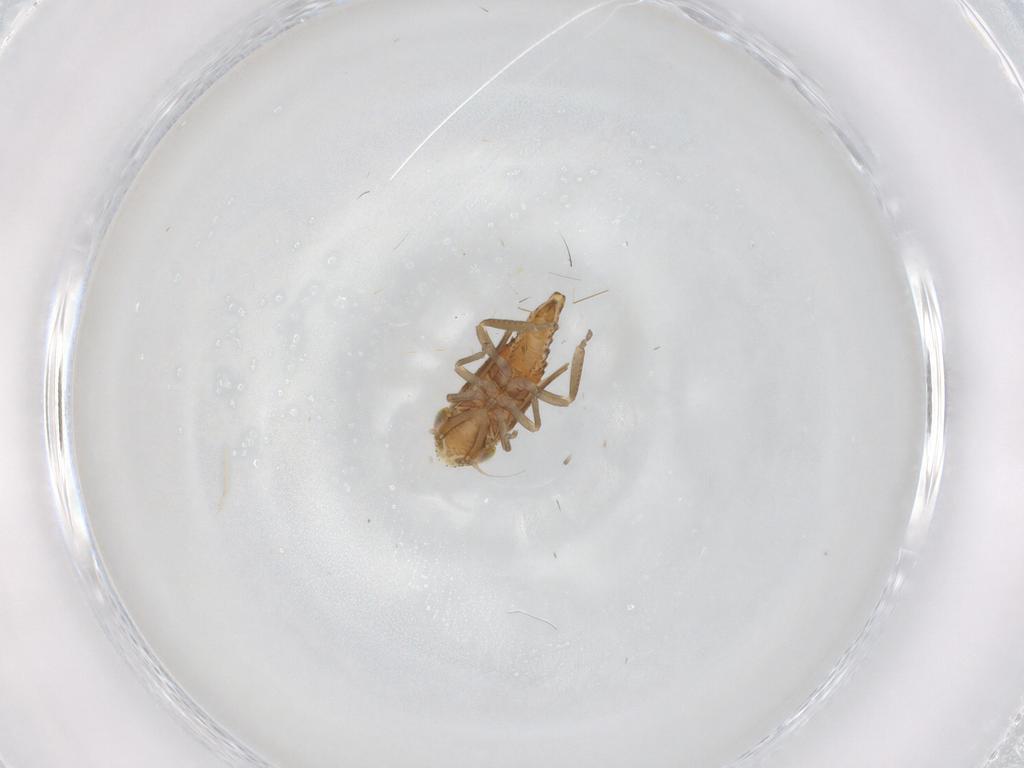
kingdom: Animalia
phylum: Arthropoda
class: Insecta
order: Hemiptera
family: Cicadellidae
